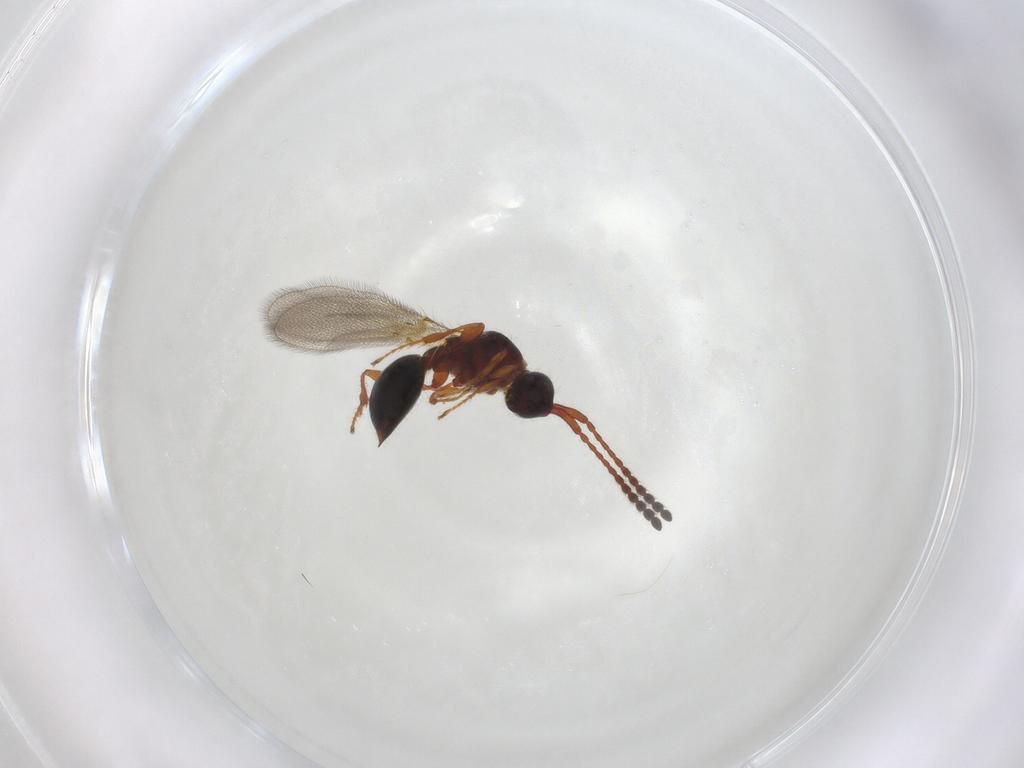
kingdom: Animalia
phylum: Arthropoda
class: Insecta
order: Hymenoptera
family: Diapriidae
